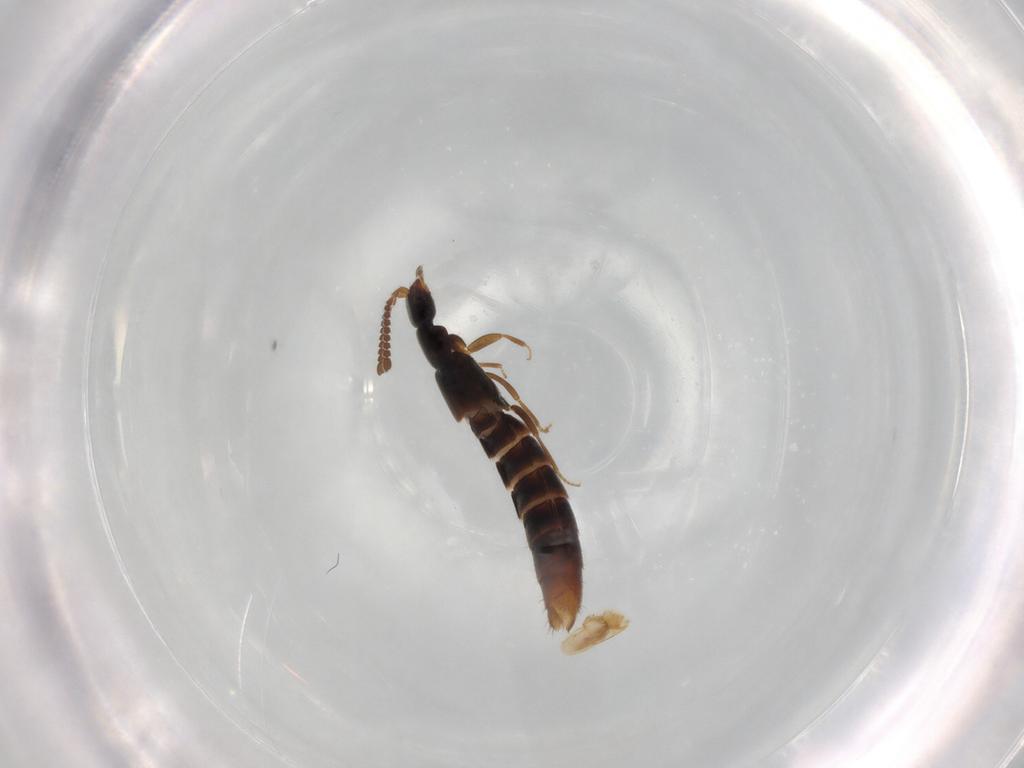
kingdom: Animalia
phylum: Arthropoda
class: Insecta
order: Coleoptera
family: Staphylinidae
